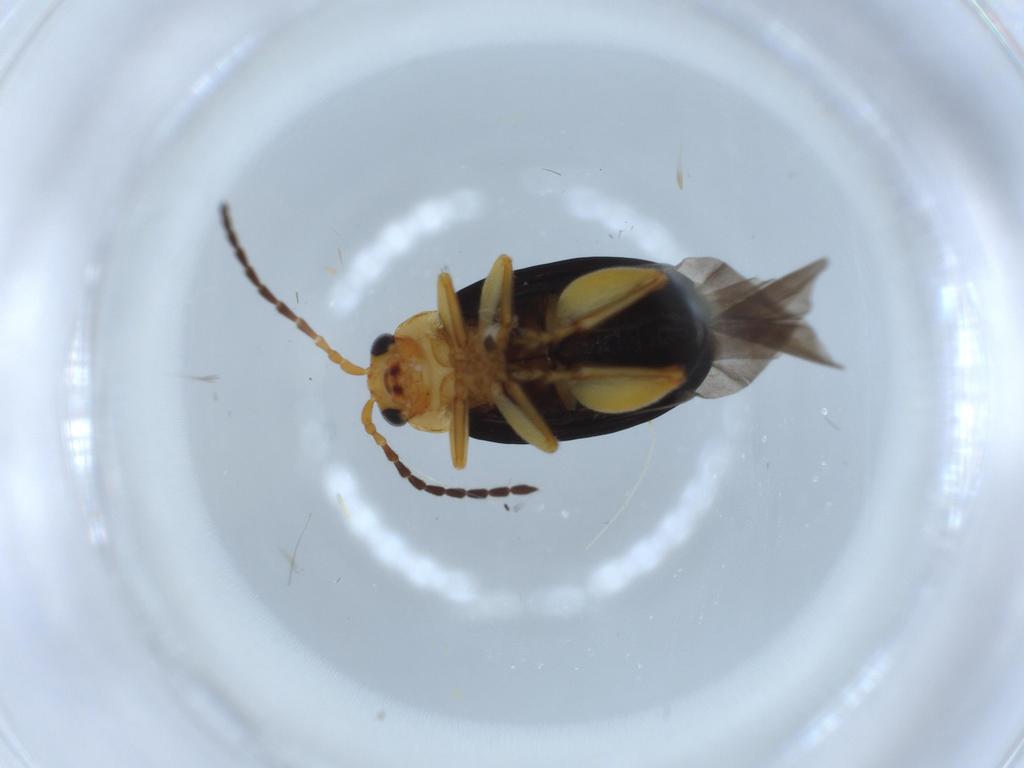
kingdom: Animalia
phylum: Arthropoda
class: Insecta
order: Coleoptera
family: Chrysomelidae
